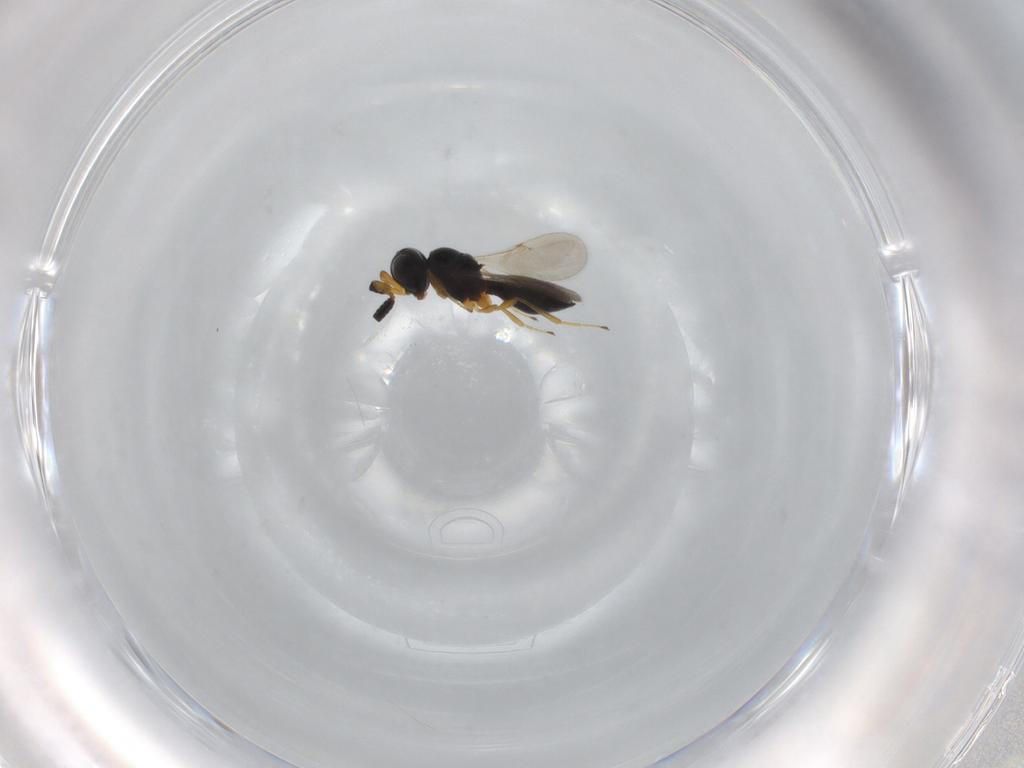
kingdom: Animalia
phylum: Arthropoda
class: Insecta
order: Hymenoptera
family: Scelionidae
